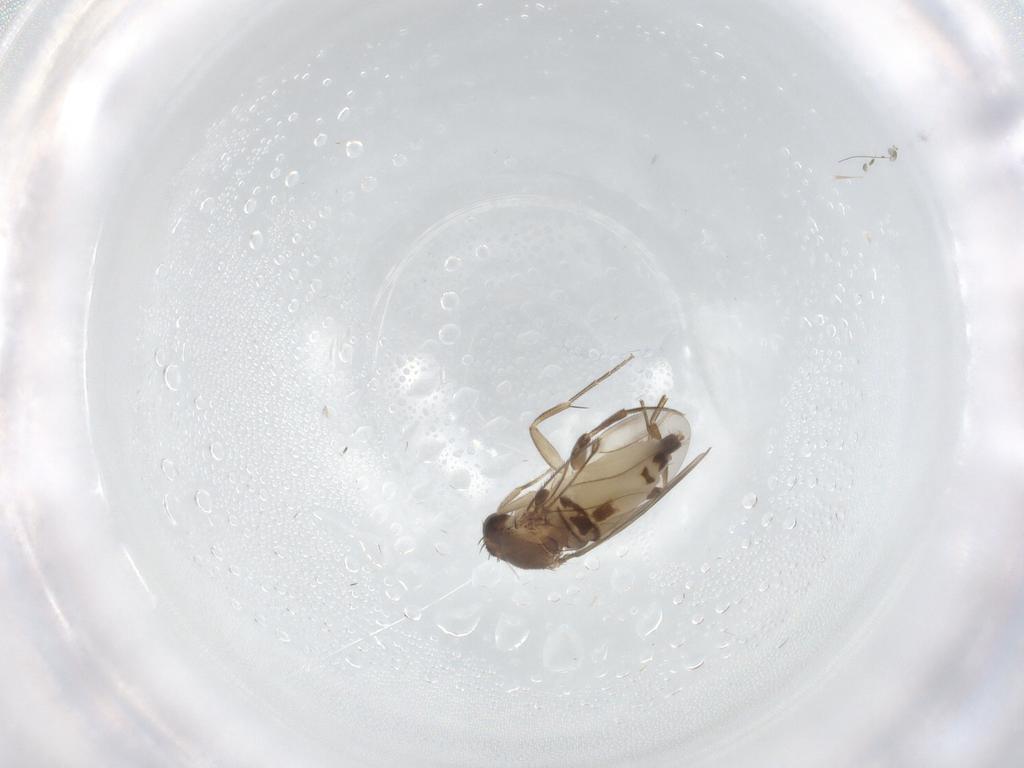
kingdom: Animalia
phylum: Arthropoda
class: Insecta
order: Diptera
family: Phoridae
